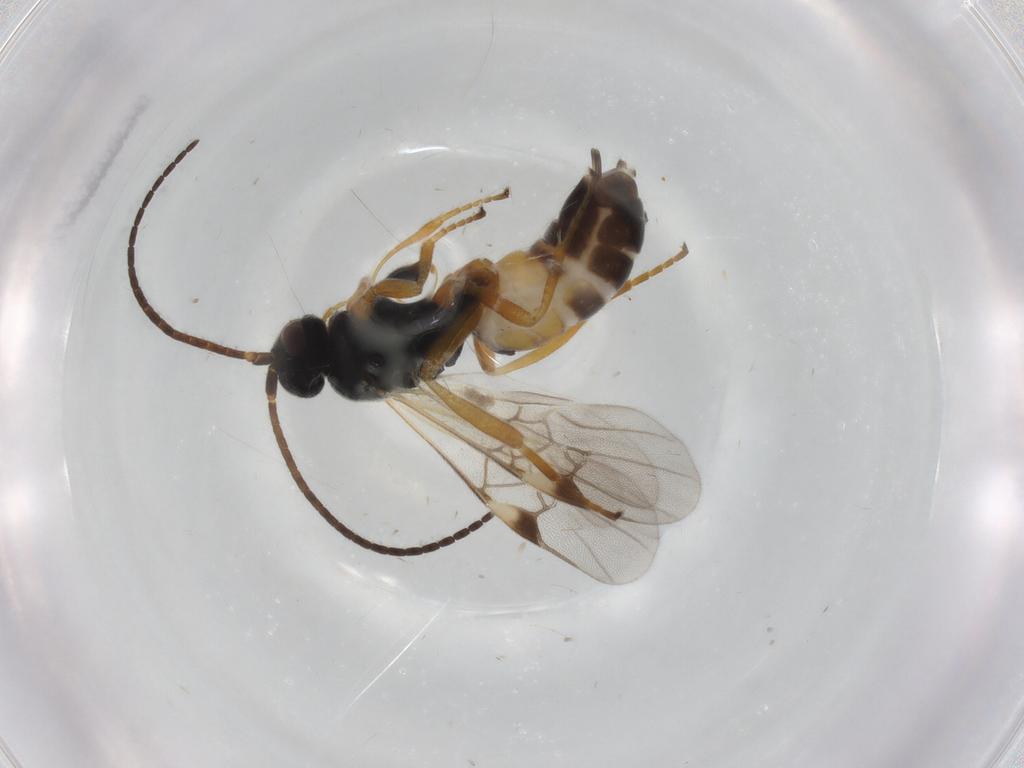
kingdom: Animalia
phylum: Arthropoda
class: Insecta
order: Hymenoptera
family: Braconidae
